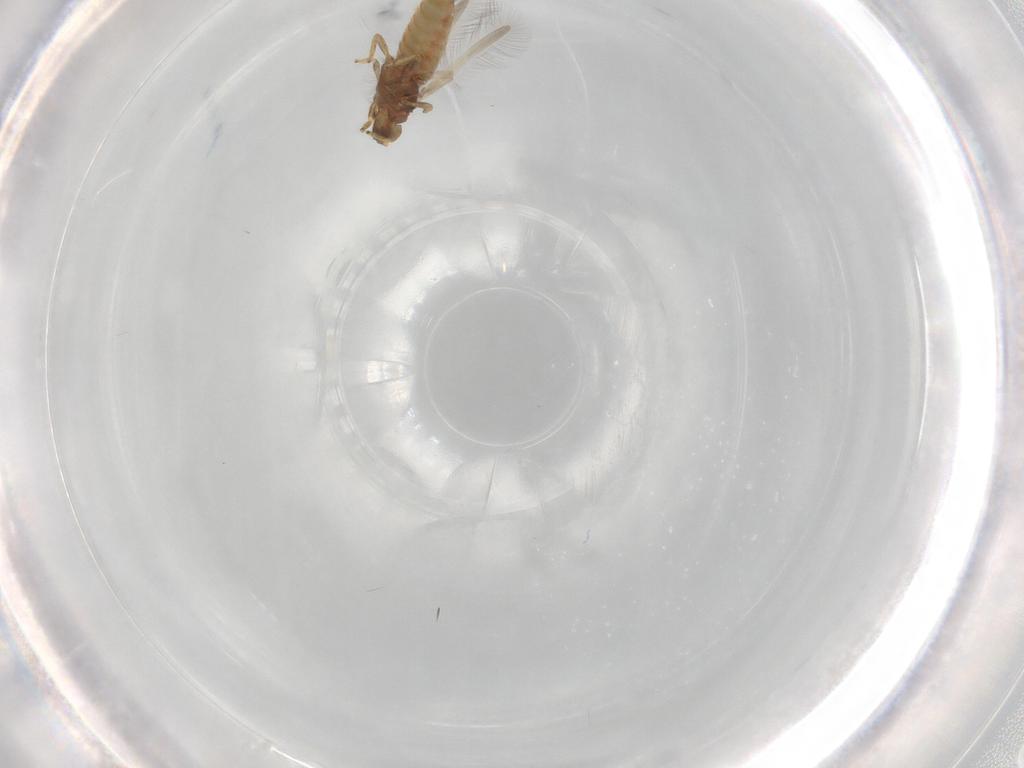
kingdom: Animalia
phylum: Arthropoda
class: Insecta
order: Thysanoptera
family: Phlaeothripidae
